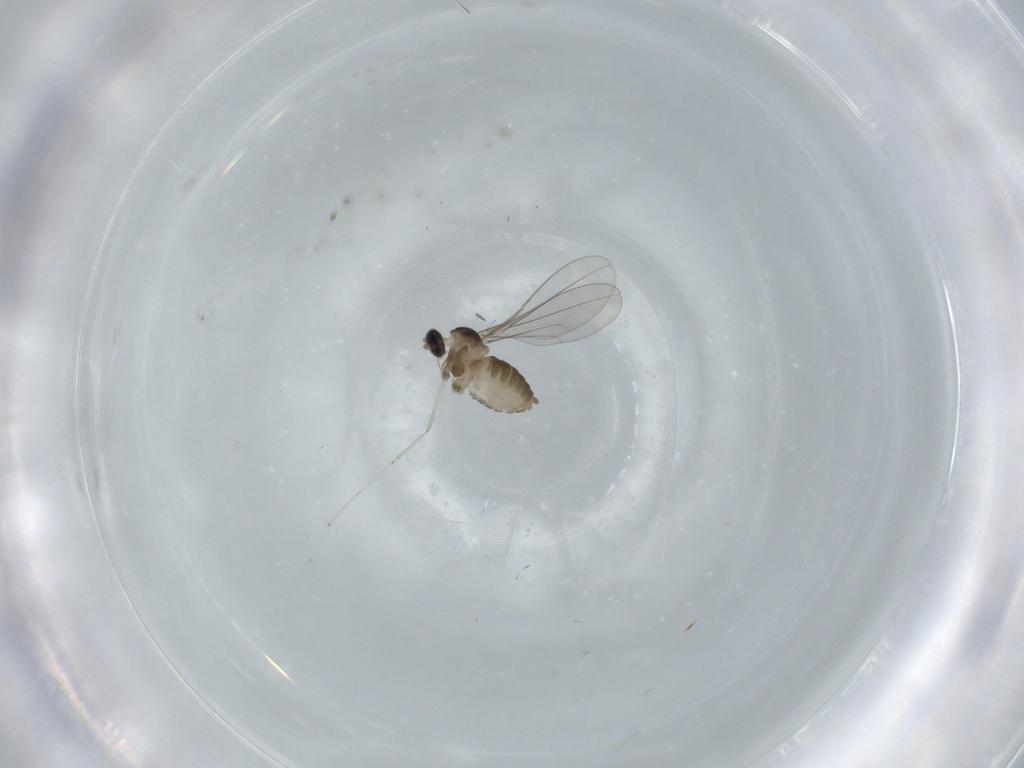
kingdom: Animalia
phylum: Arthropoda
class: Insecta
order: Diptera
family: Cecidomyiidae
